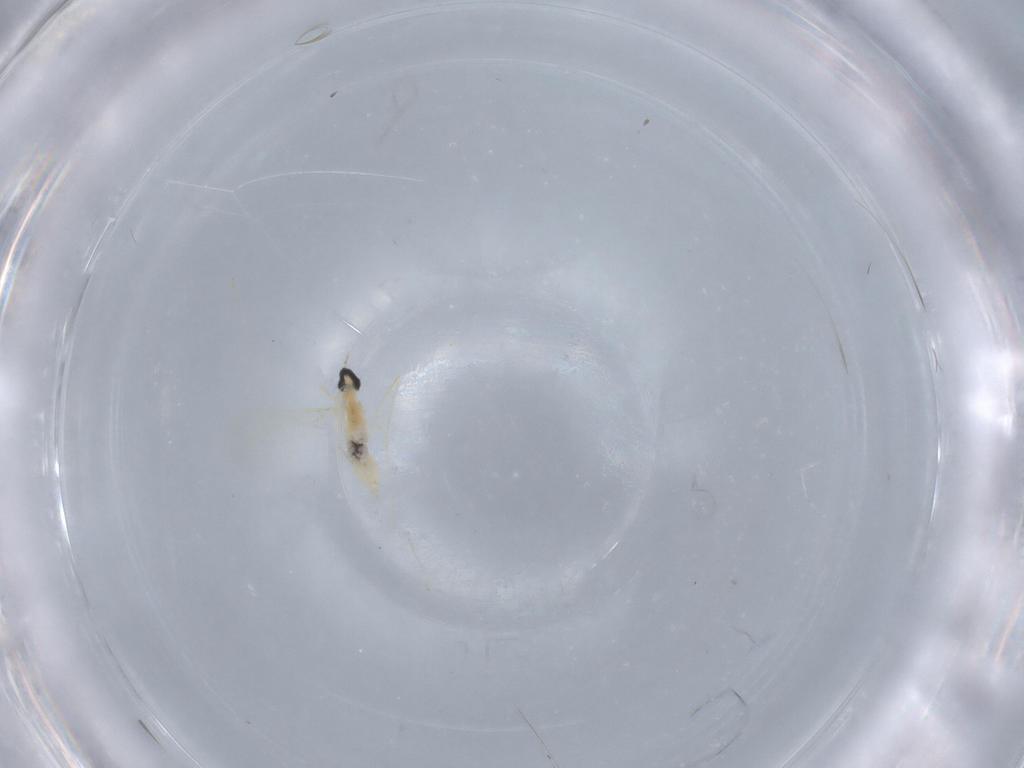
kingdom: Animalia
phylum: Arthropoda
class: Insecta
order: Diptera
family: Cecidomyiidae
